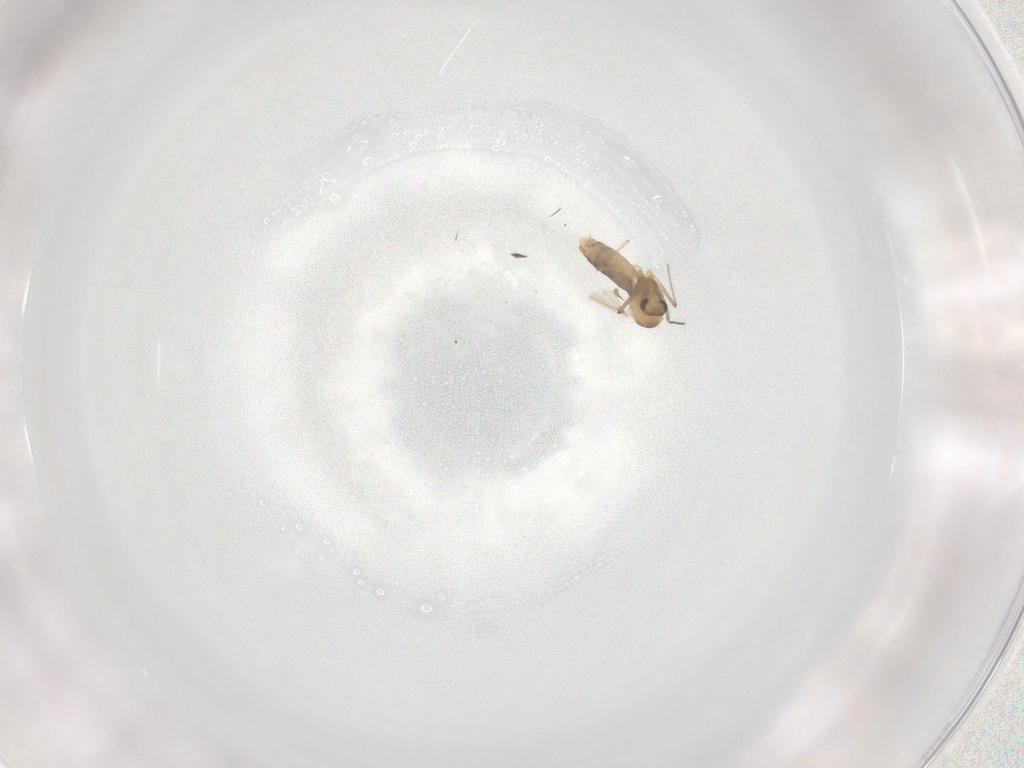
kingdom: Animalia
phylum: Arthropoda
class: Insecta
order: Diptera
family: Chironomidae
